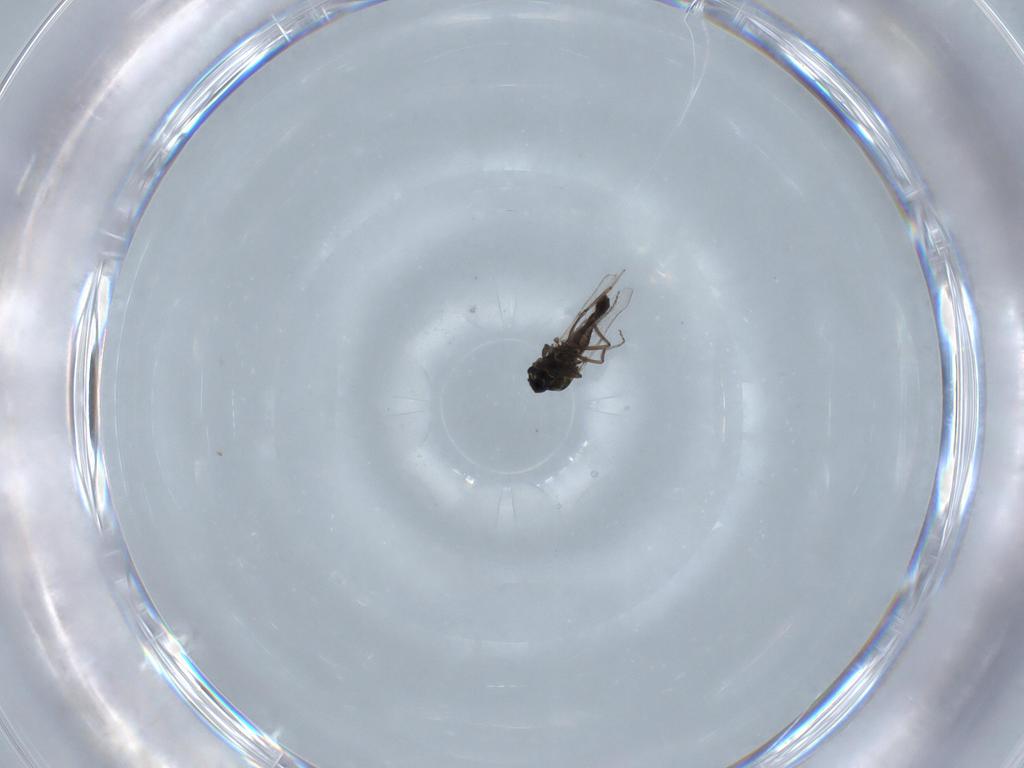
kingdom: Animalia
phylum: Arthropoda
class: Insecta
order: Diptera
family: Ceratopogonidae
